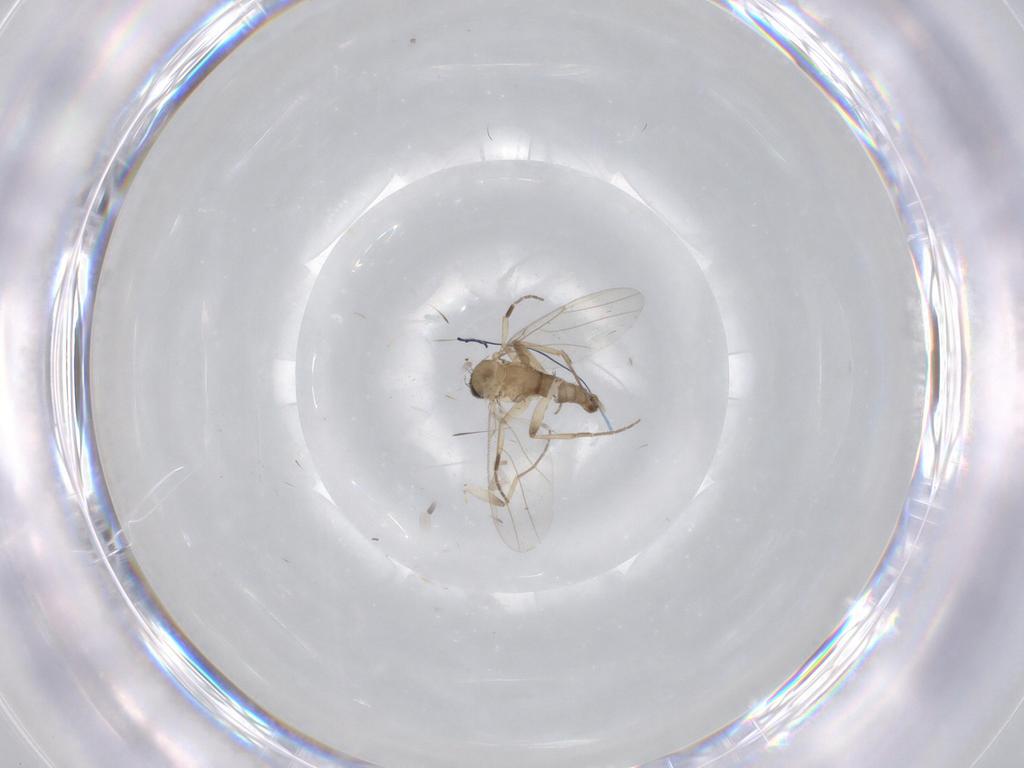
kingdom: Animalia
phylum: Arthropoda
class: Insecta
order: Diptera
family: Phoridae
